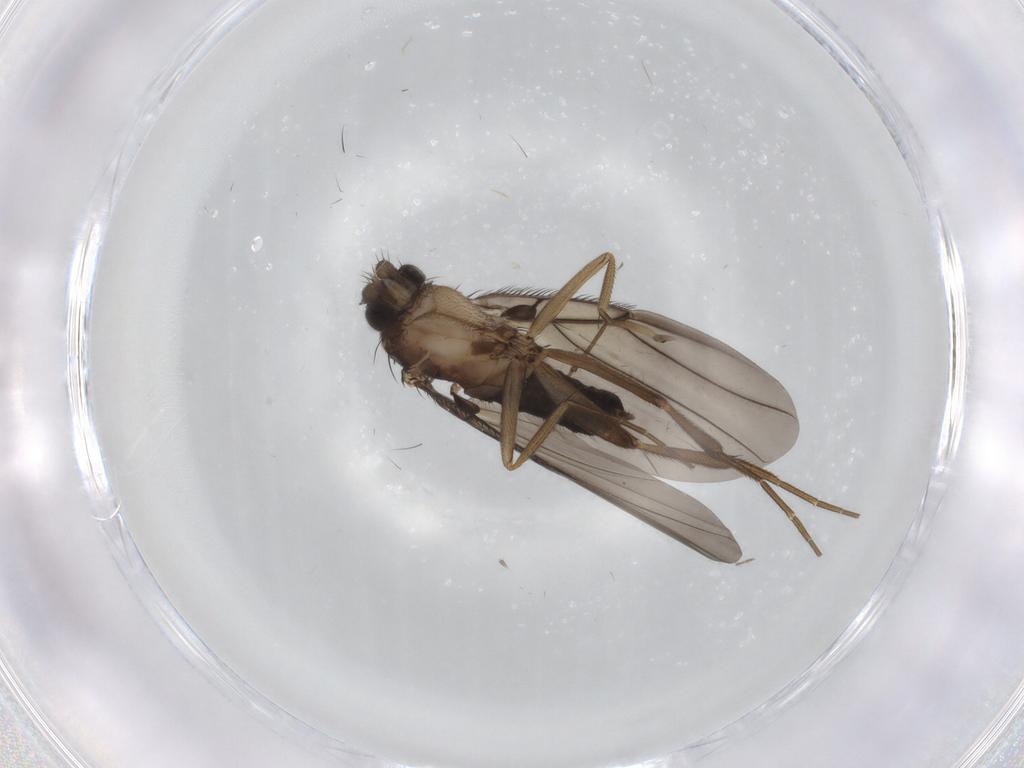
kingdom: Animalia
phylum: Arthropoda
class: Insecta
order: Diptera
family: Phoridae
